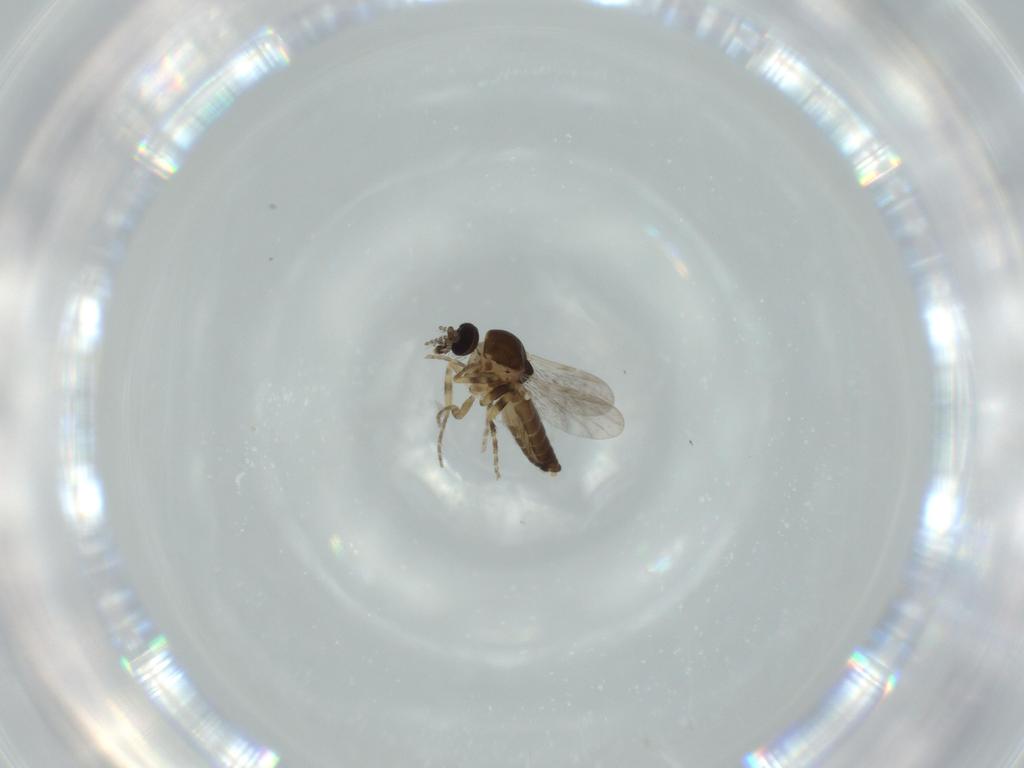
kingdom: Animalia
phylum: Arthropoda
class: Insecta
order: Diptera
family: Ceratopogonidae
